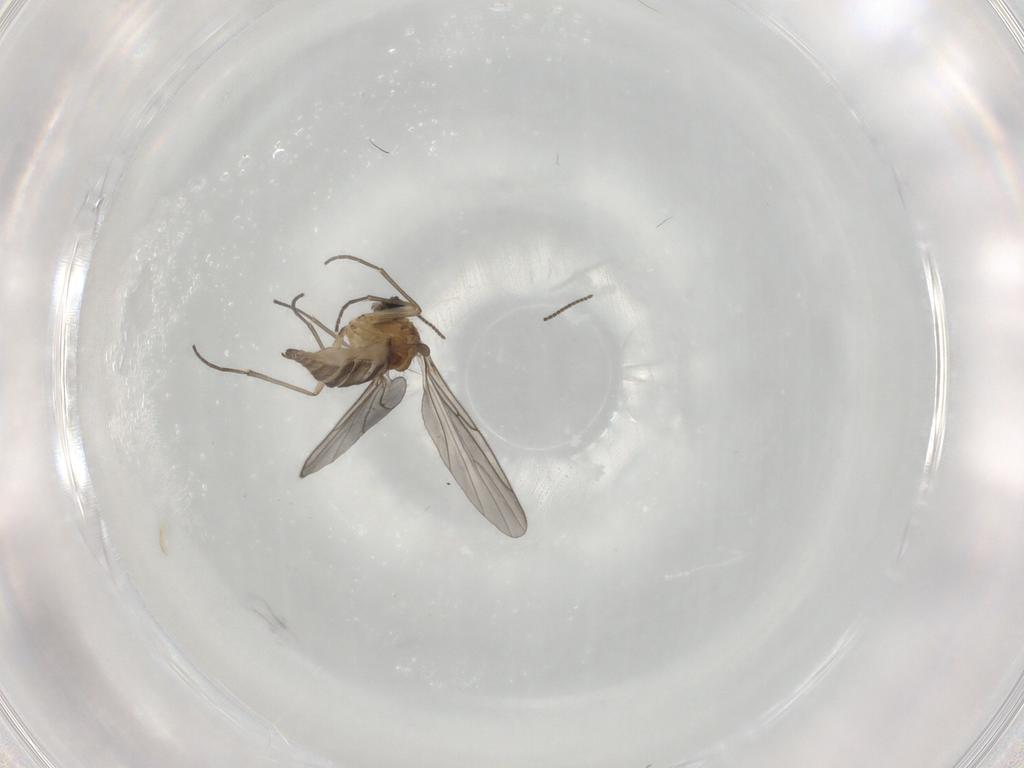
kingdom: Animalia
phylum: Arthropoda
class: Insecta
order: Diptera
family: Sciaridae
